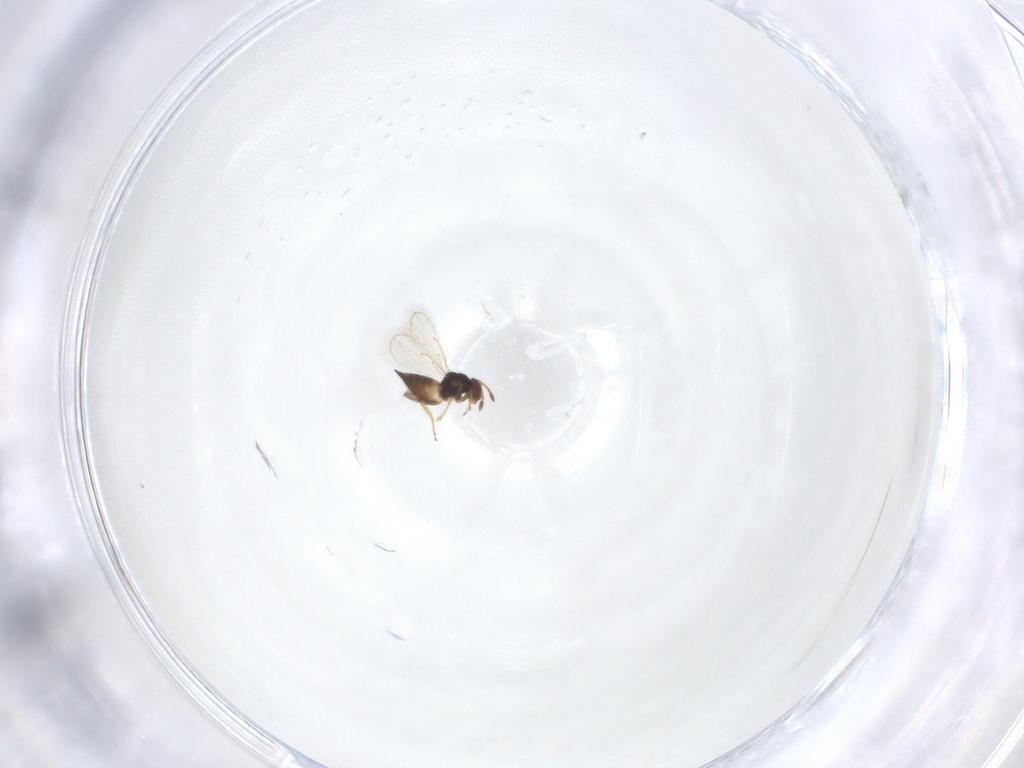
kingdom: Animalia
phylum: Arthropoda
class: Insecta
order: Hymenoptera
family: Eulophidae
